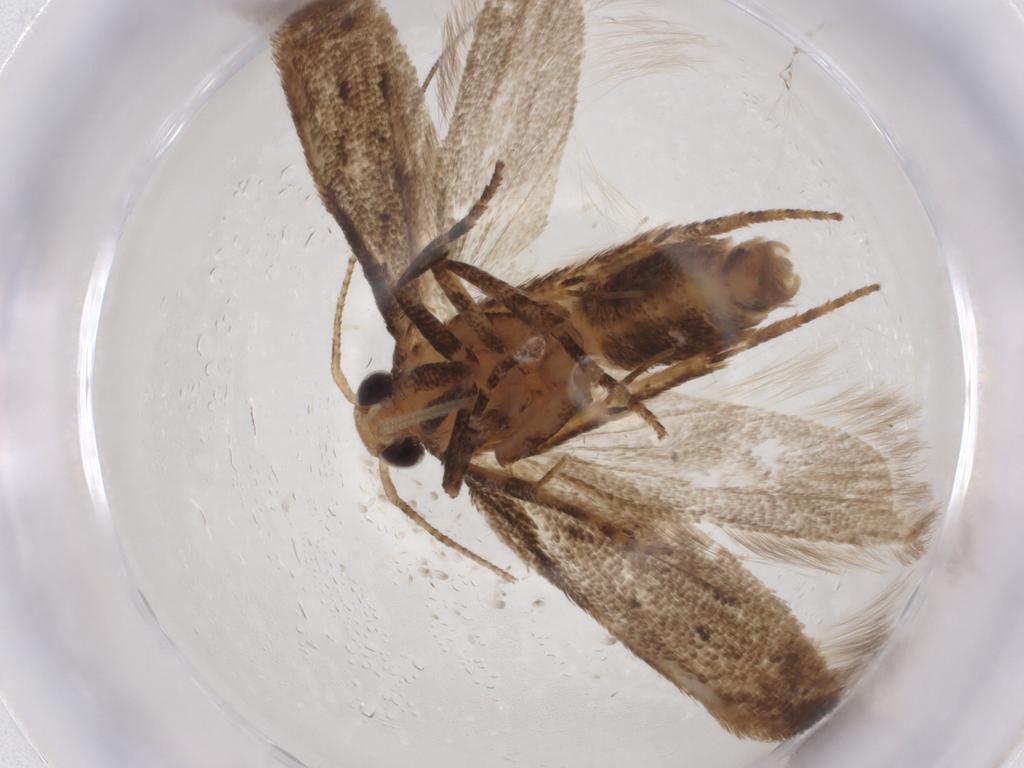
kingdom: Animalia
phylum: Arthropoda
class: Insecta
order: Lepidoptera
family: Gelechiidae
